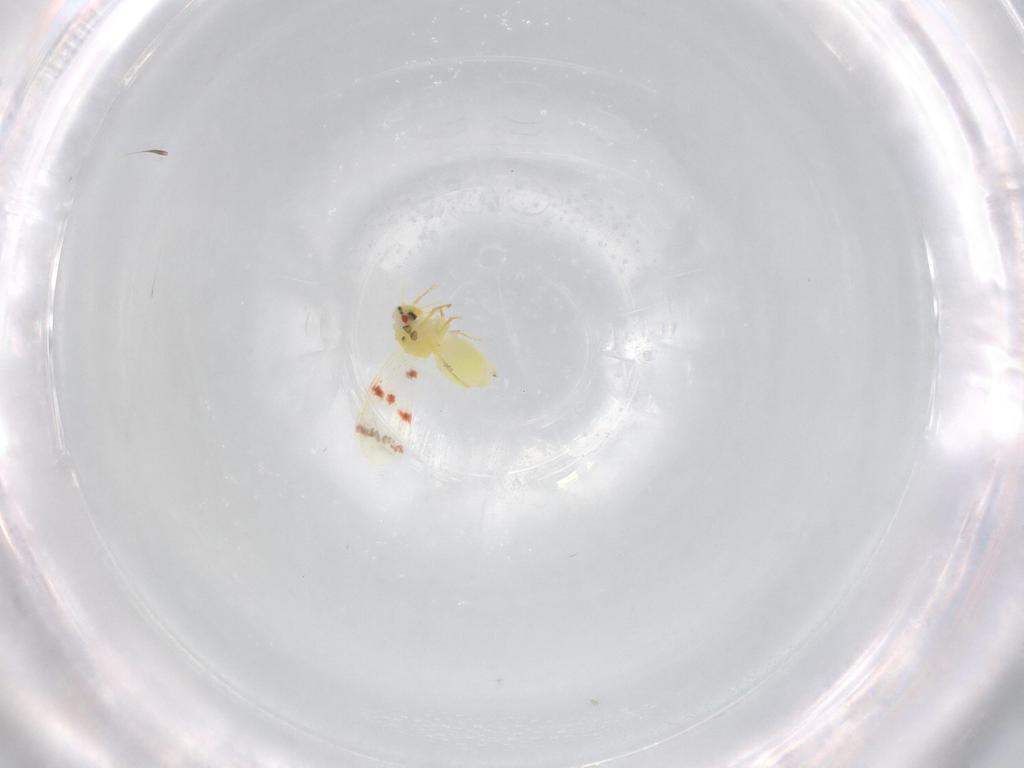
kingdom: Animalia
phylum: Arthropoda
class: Insecta
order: Hemiptera
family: Aleyrodidae
